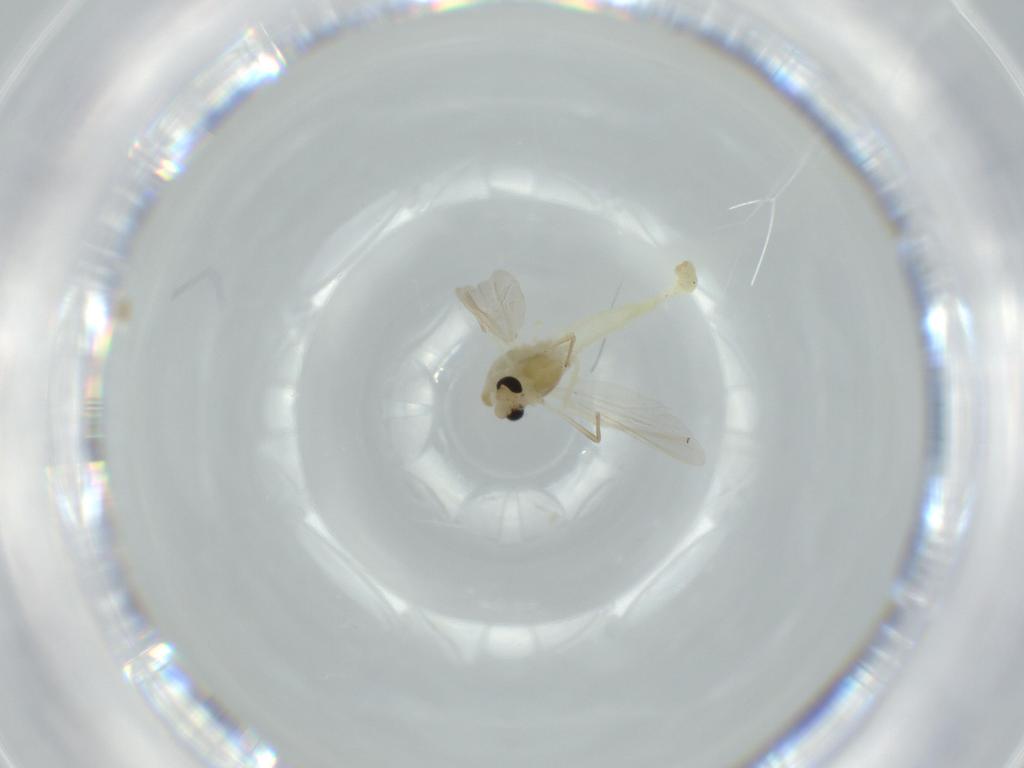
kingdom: Animalia
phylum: Arthropoda
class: Insecta
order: Diptera
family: Chironomidae
